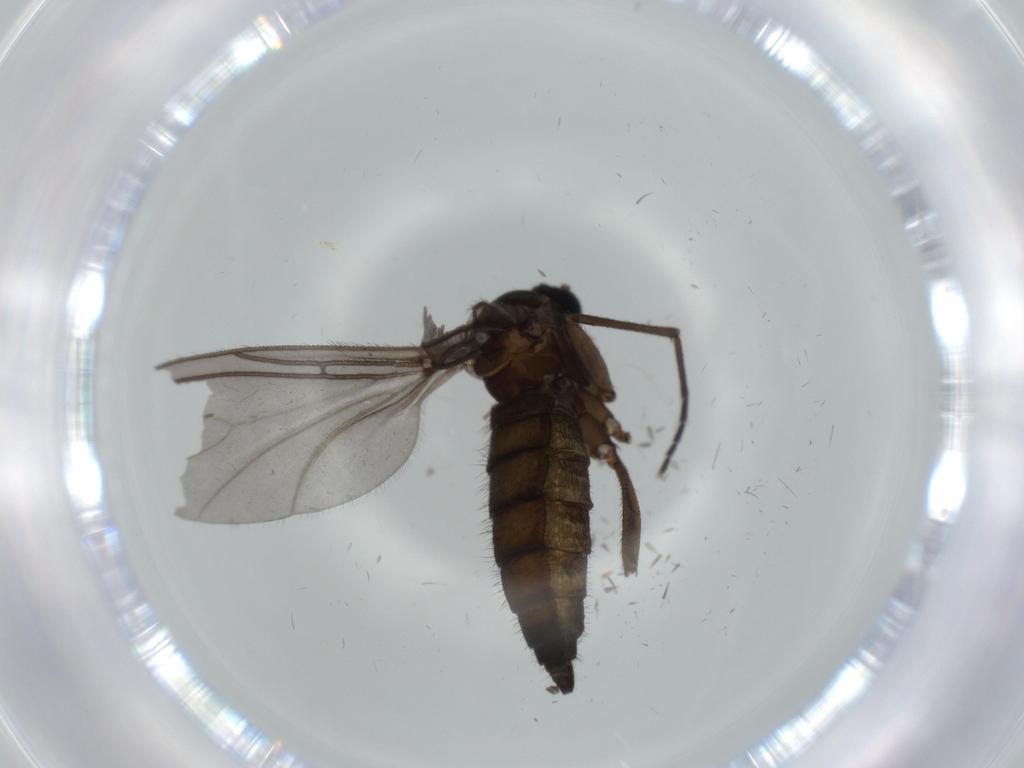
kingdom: Animalia
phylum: Arthropoda
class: Insecta
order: Diptera
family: Sciaridae
